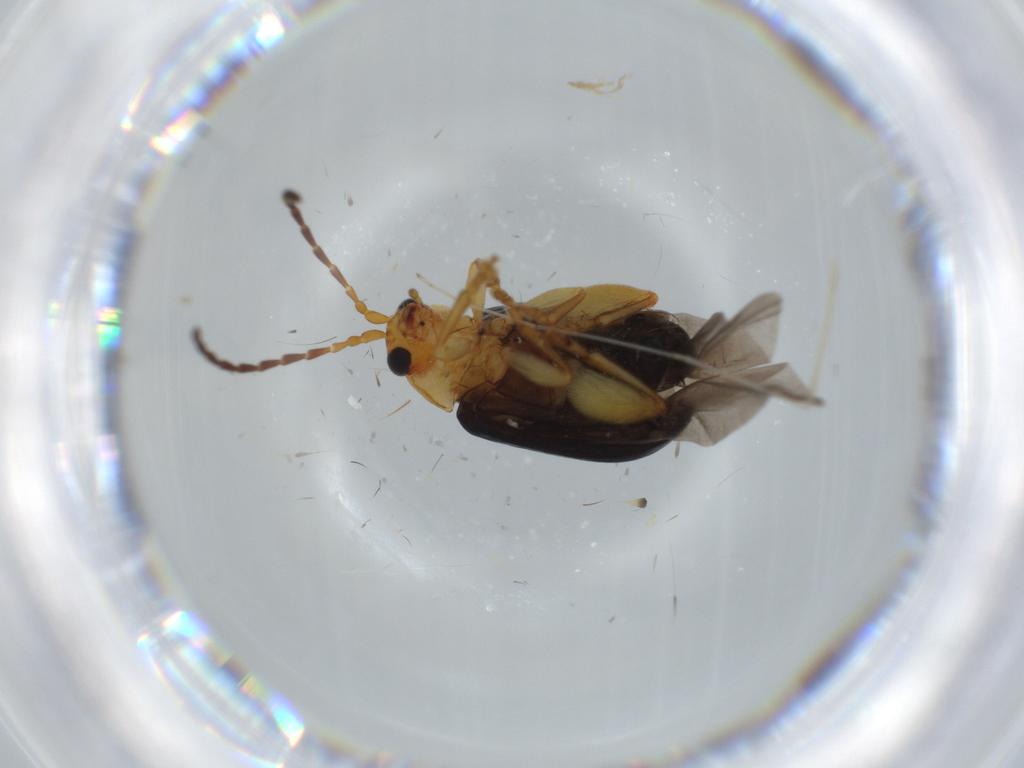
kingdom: Animalia
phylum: Arthropoda
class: Insecta
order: Coleoptera
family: Chrysomelidae
